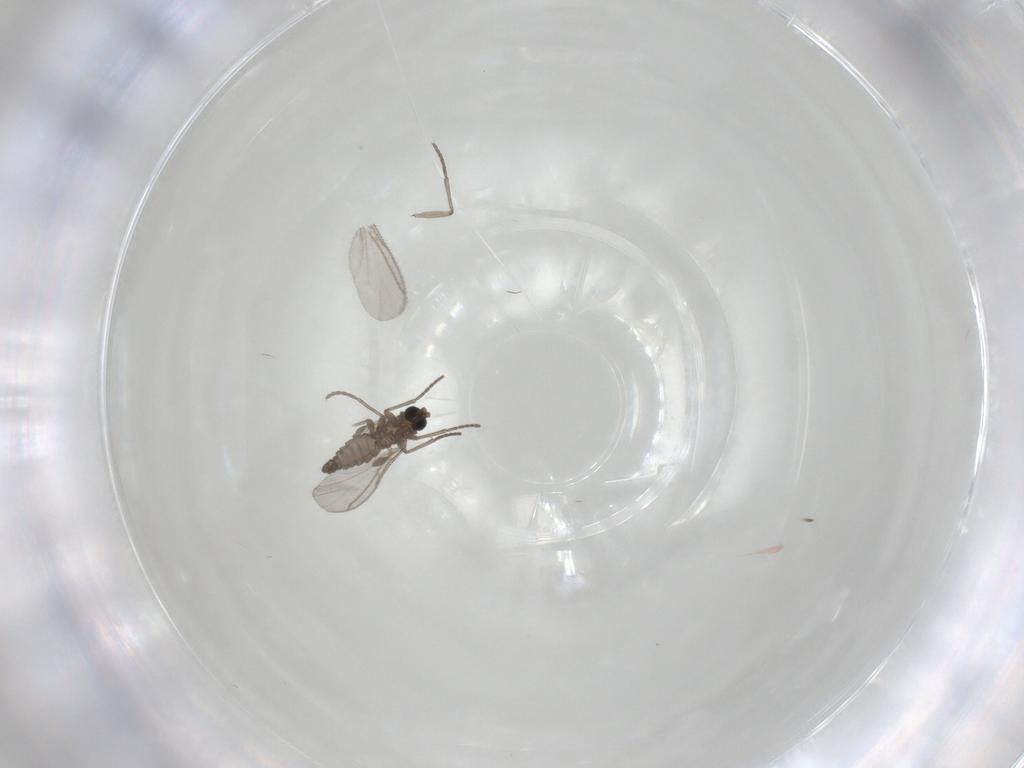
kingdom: Animalia
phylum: Arthropoda
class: Insecta
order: Diptera
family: Sciaridae
